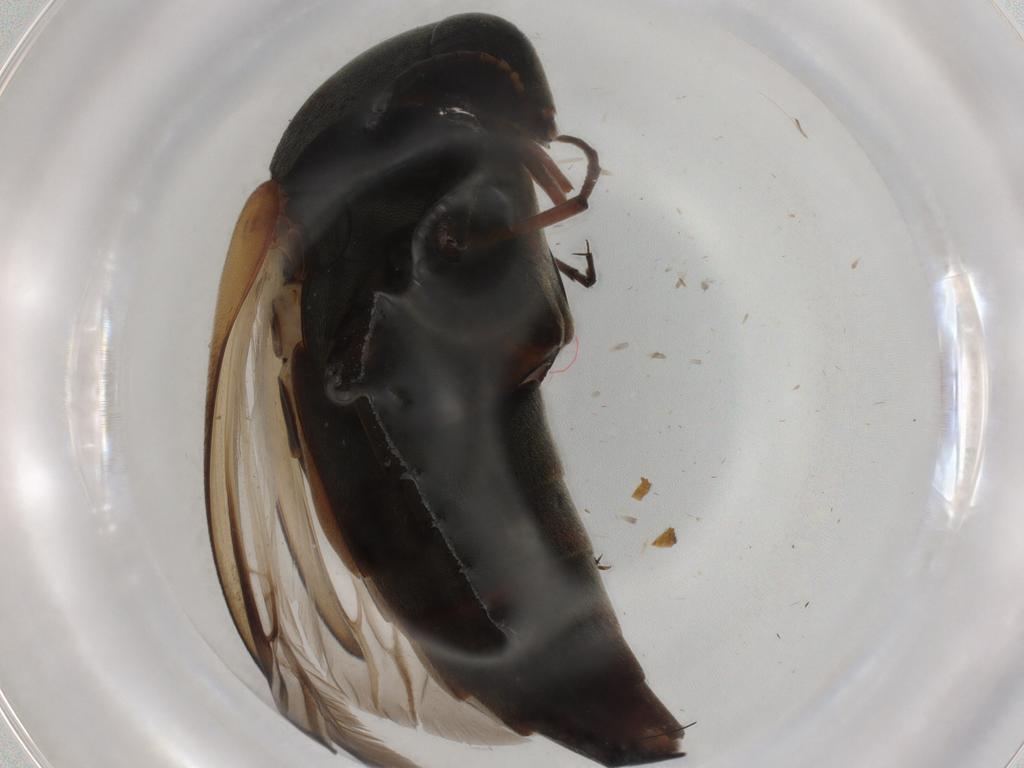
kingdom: Animalia
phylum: Arthropoda
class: Insecta
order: Coleoptera
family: Mordellidae
